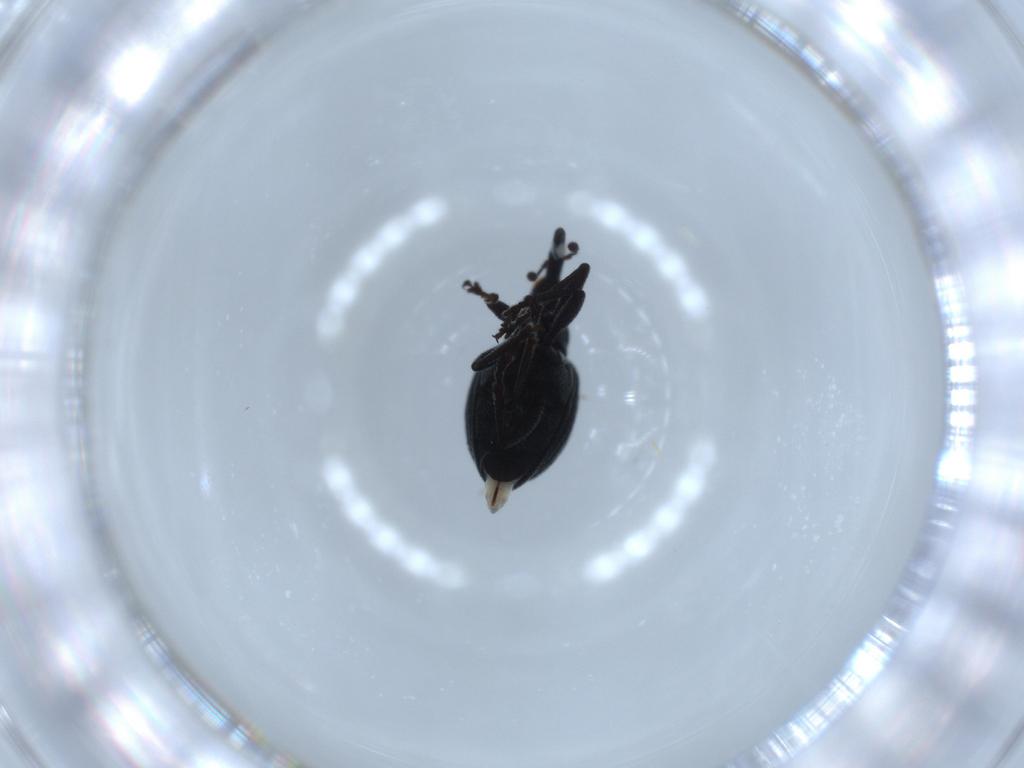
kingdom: Animalia
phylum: Arthropoda
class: Insecta
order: Coleoptera
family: Brentidae
